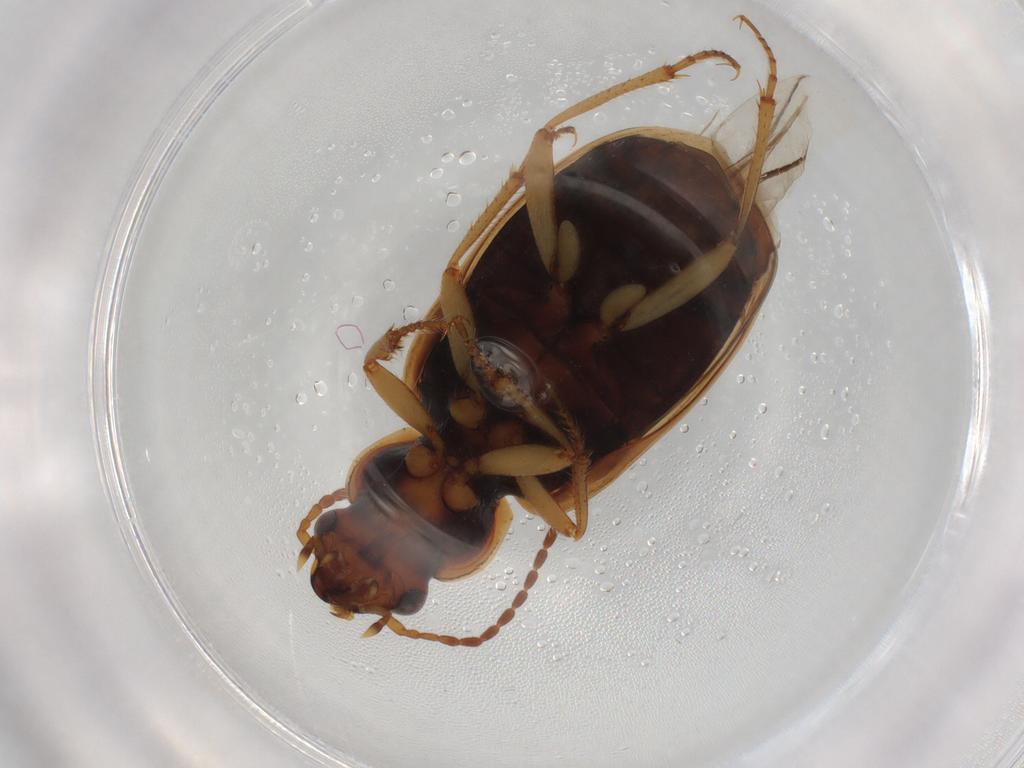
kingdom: Animalia
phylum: Arthropoda
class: Insecta
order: Coleoptera
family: Carabidae
